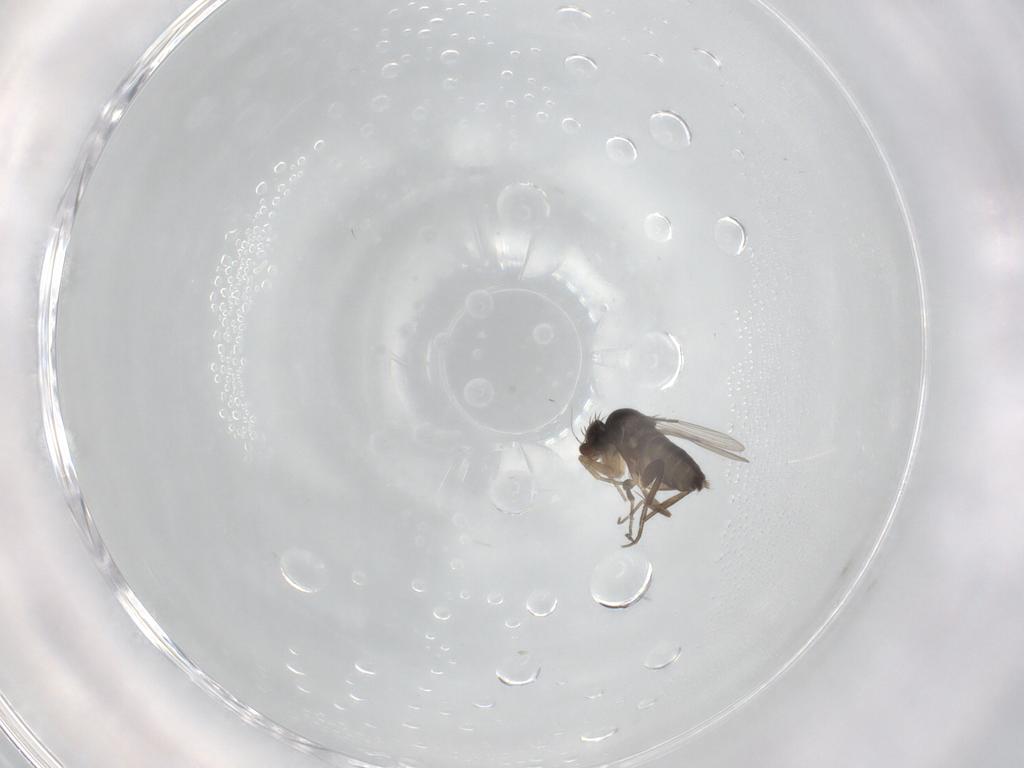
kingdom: Animalia
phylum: Arthropoda
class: Insecta
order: Diptera
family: Phoridae
